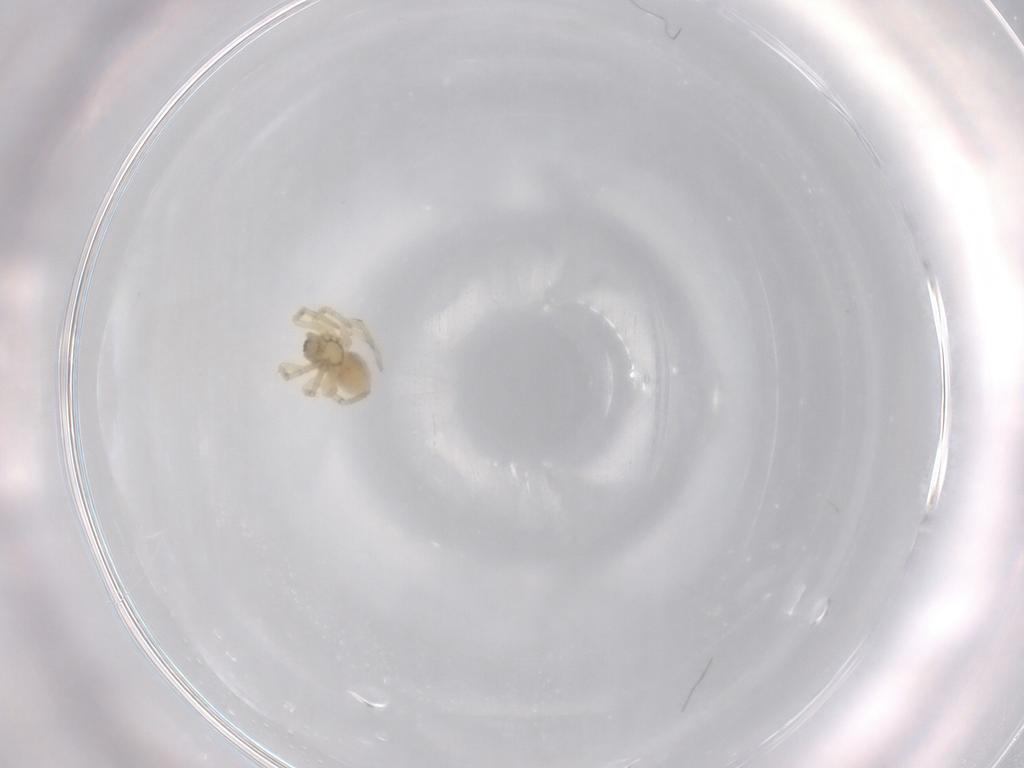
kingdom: Animalia
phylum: Arthropoda
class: Arachnida
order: Araneae
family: Theridiidae
